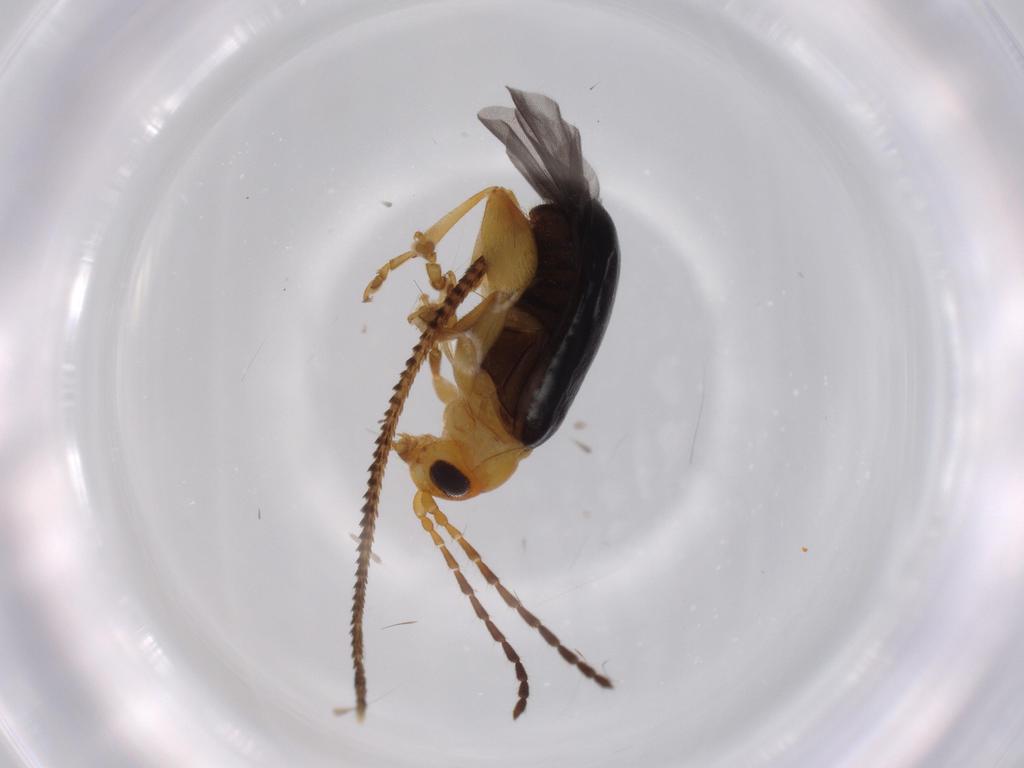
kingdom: Animalia
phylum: Arthropoda
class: Insecta
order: Coleoptera
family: Chrysomelidae
